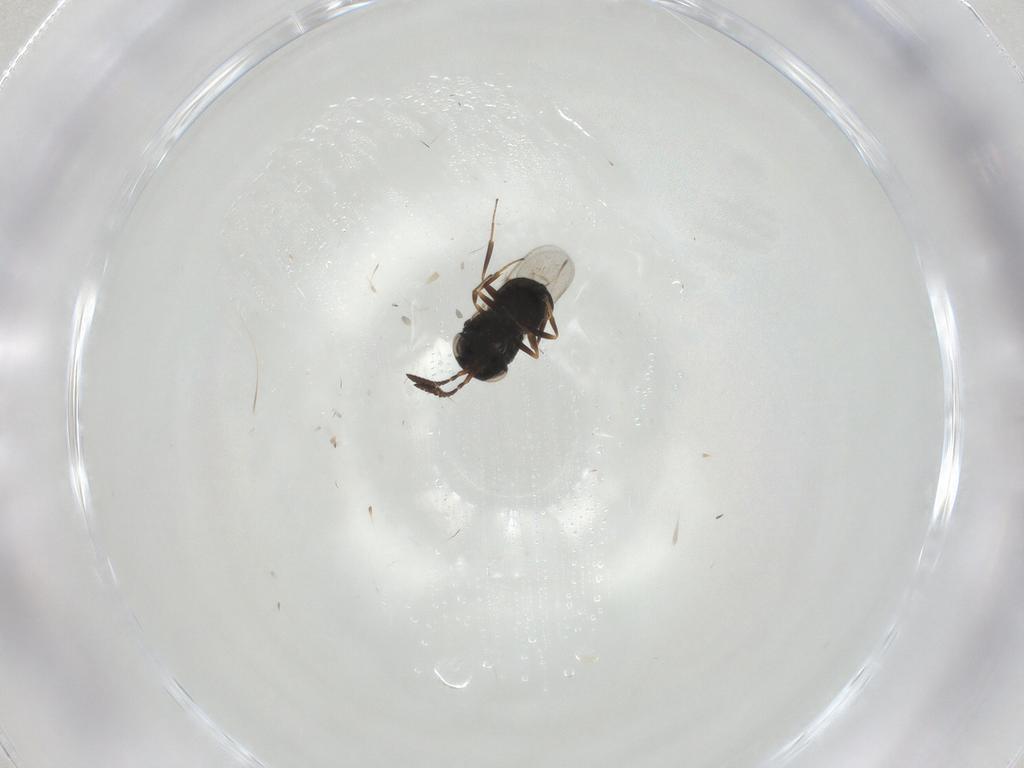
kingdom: Animalia
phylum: Arthropoda
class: Insecta
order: Hymenoptera
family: Scelionidae
